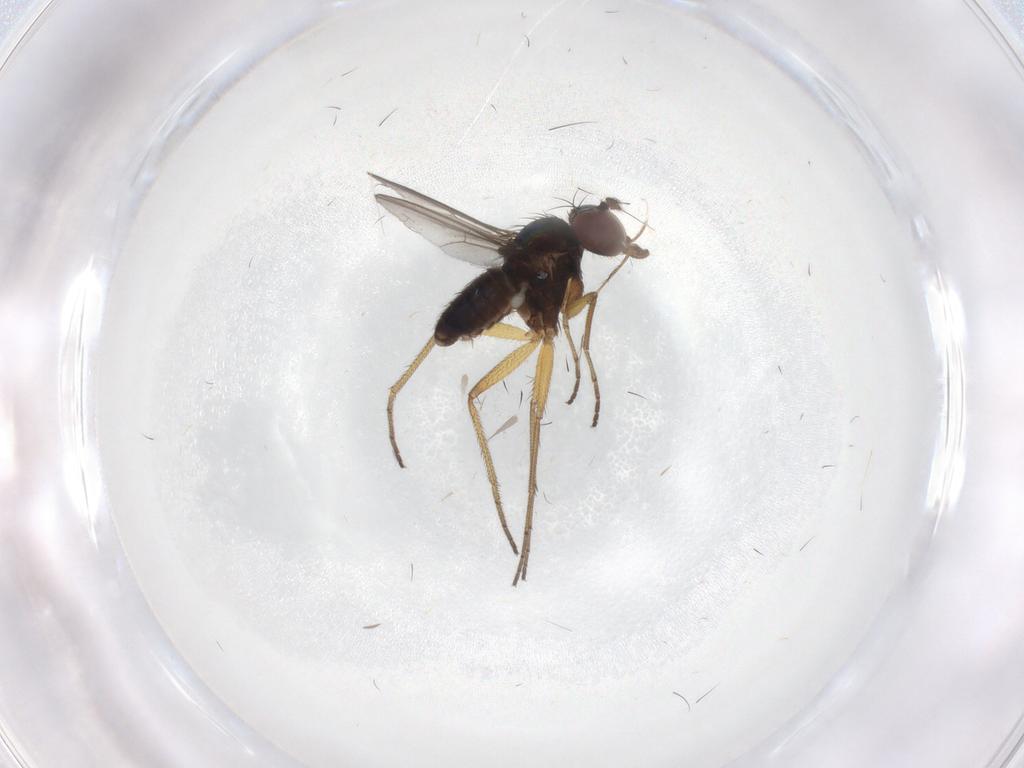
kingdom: Animalia
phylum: Arthropoda
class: Insecta
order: Diptera
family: Dolichopodidae
